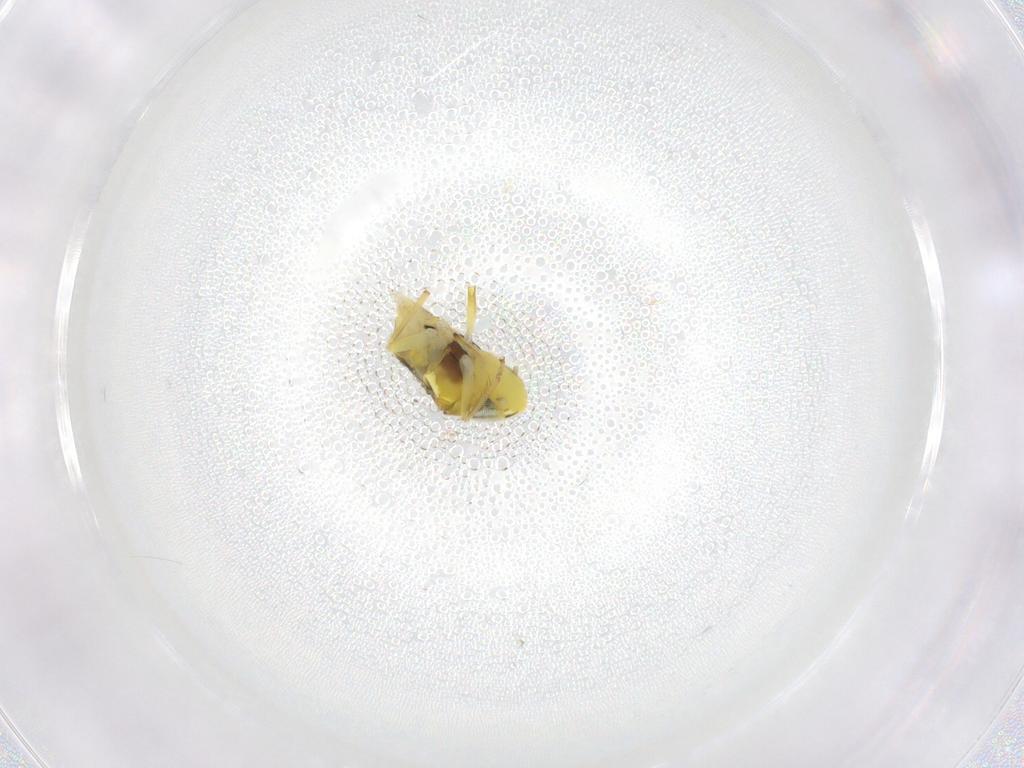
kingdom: Animalia
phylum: Arthropoda
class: Insecta
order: Hemiptera
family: Cicadellidae
